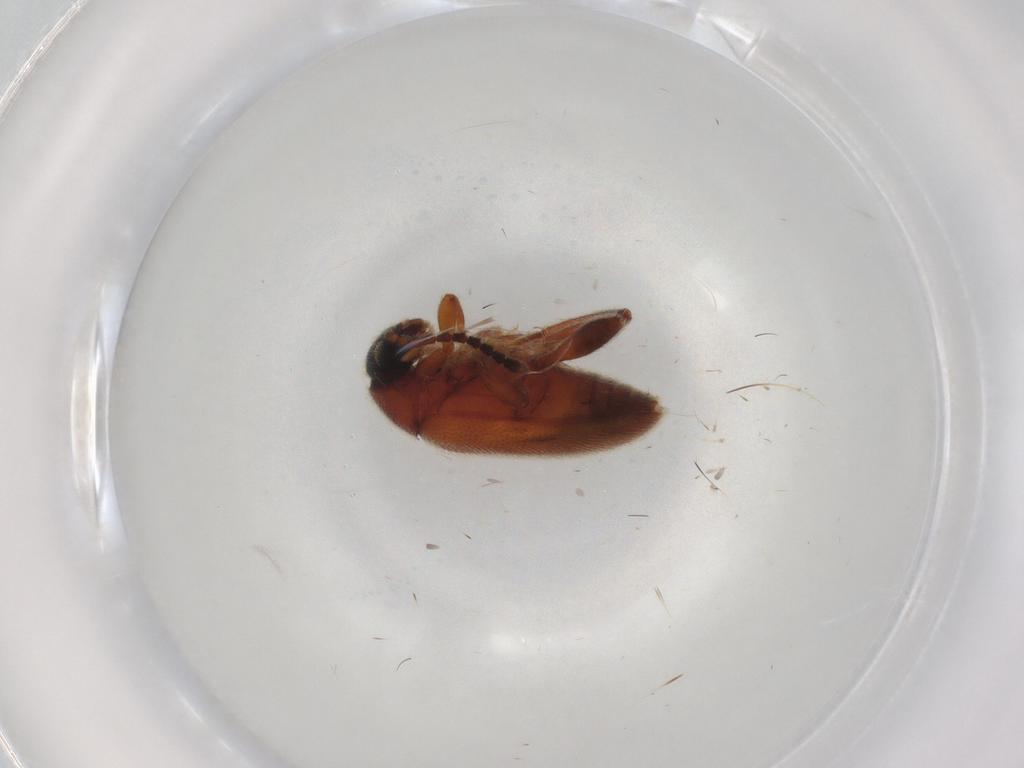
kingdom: Animalia
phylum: Arthropoda
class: Insecta
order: Coleoptera
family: Aderidae
